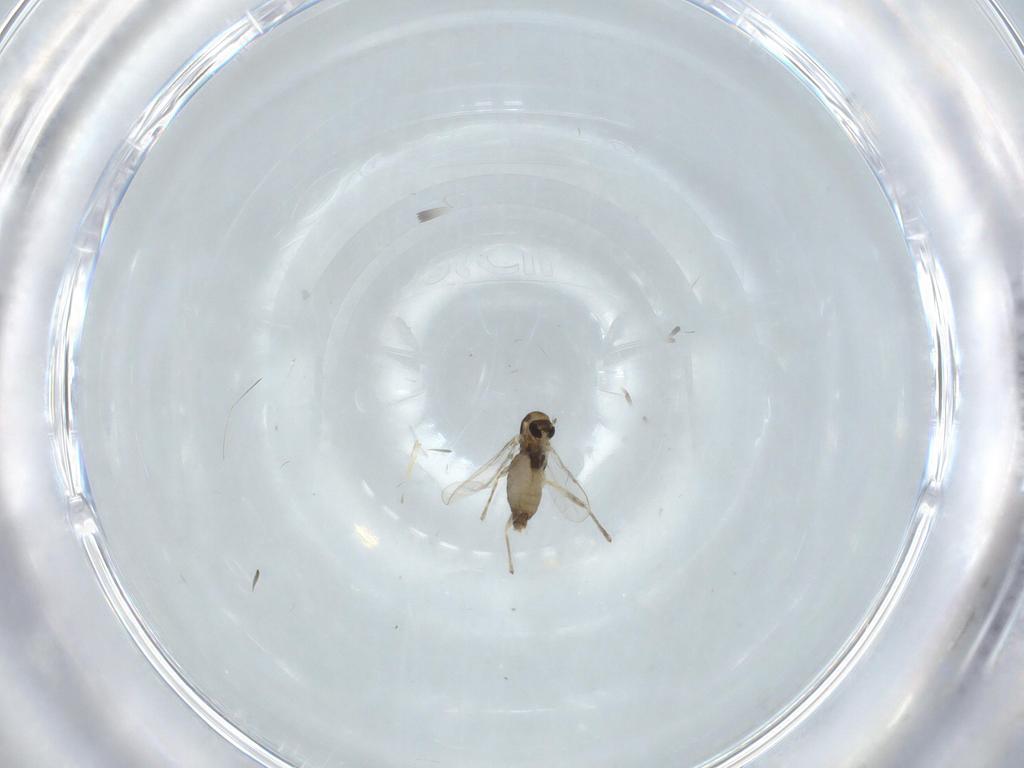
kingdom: Animalia
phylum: Arthropoda
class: Insecta
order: Diptera
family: Chironomidae
